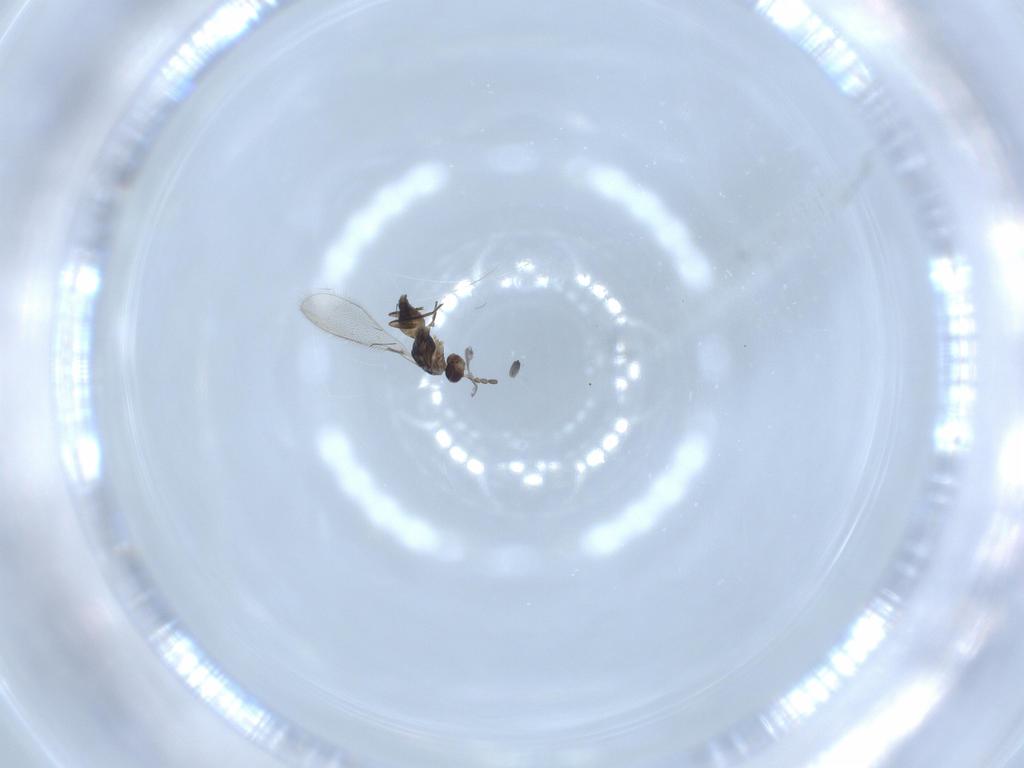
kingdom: Animalia
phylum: Arthropoda
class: Insecta
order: Hymenoptera
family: Mymaridae
